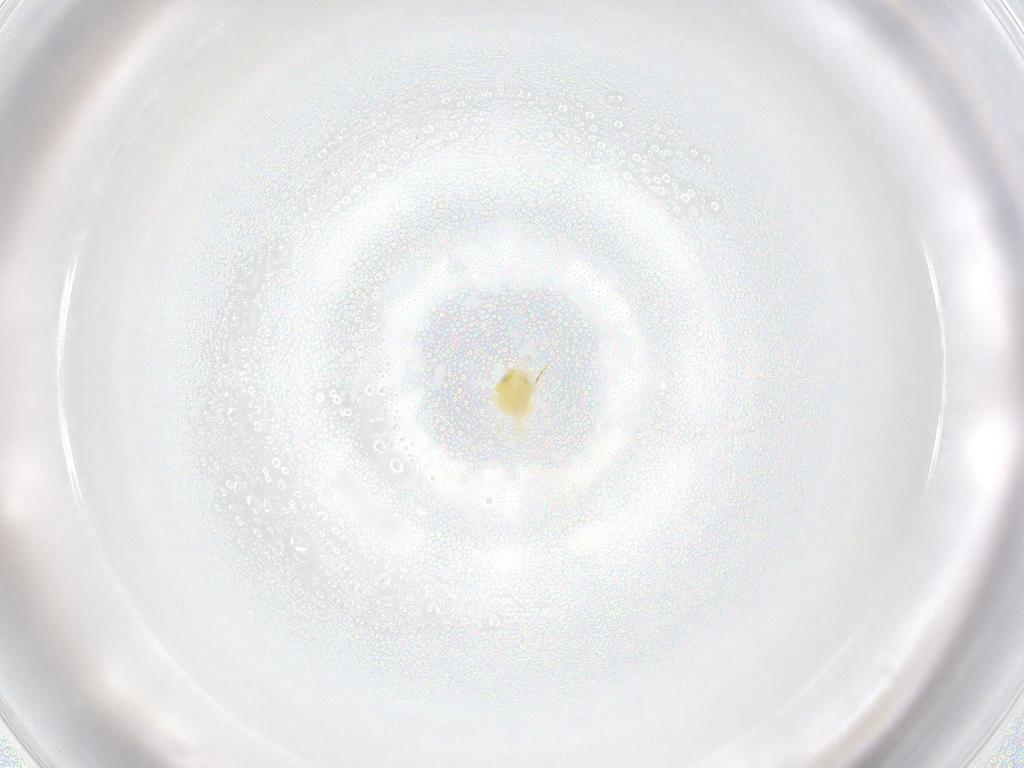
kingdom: Animalia
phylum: Arthropoda
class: Insecta
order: Hemiptera
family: Aleyrodidae
